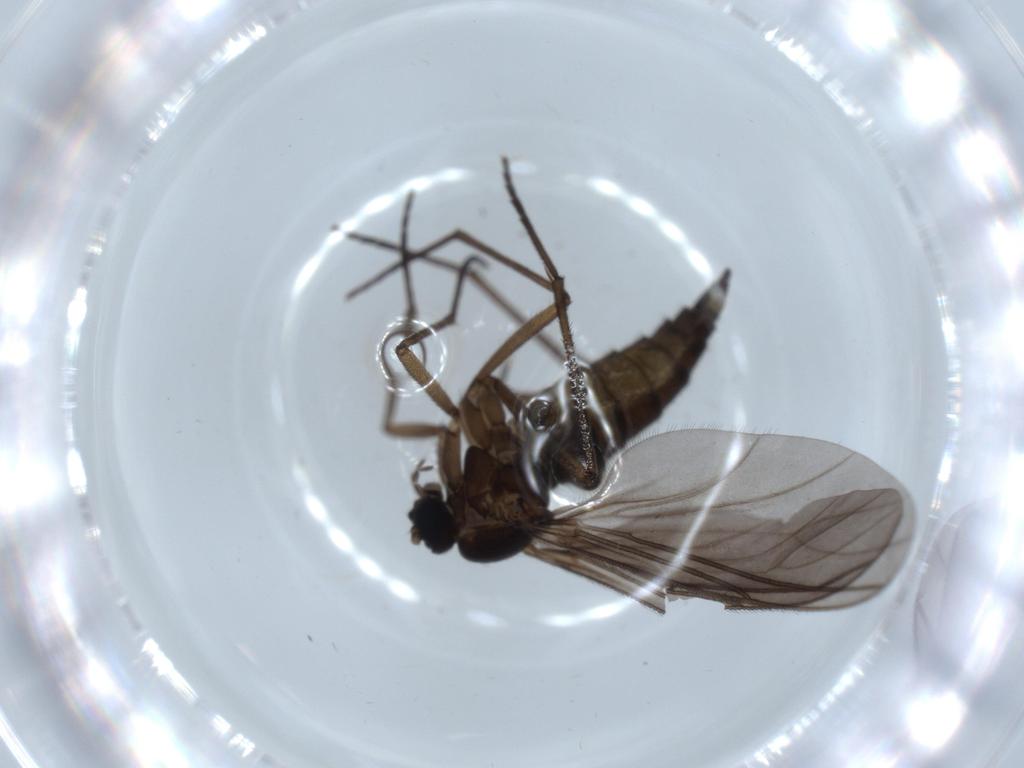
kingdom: Animalia
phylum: Arthropoda
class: Insecta
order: Diptera
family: Sciaridae
